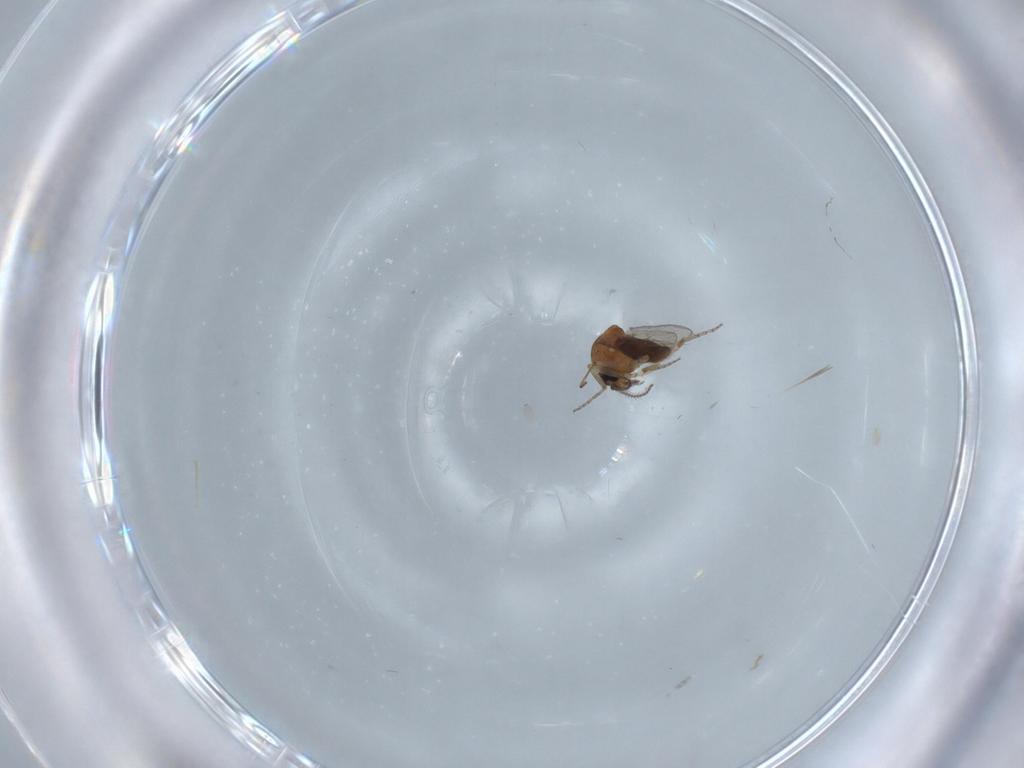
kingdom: Animalia
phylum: Arthropoda
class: Insecta
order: Diptera
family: Ceratopogonidae
